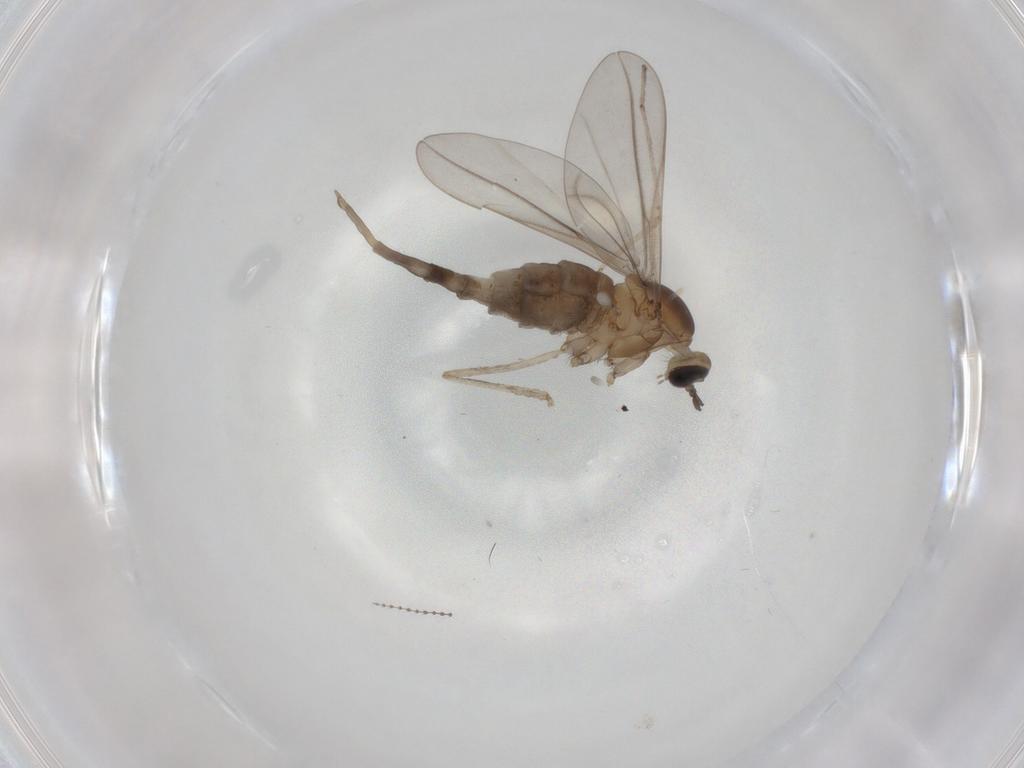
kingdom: Animalia
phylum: Arthropoda
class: Insecta
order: Diptera
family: Cecidomyiidae
